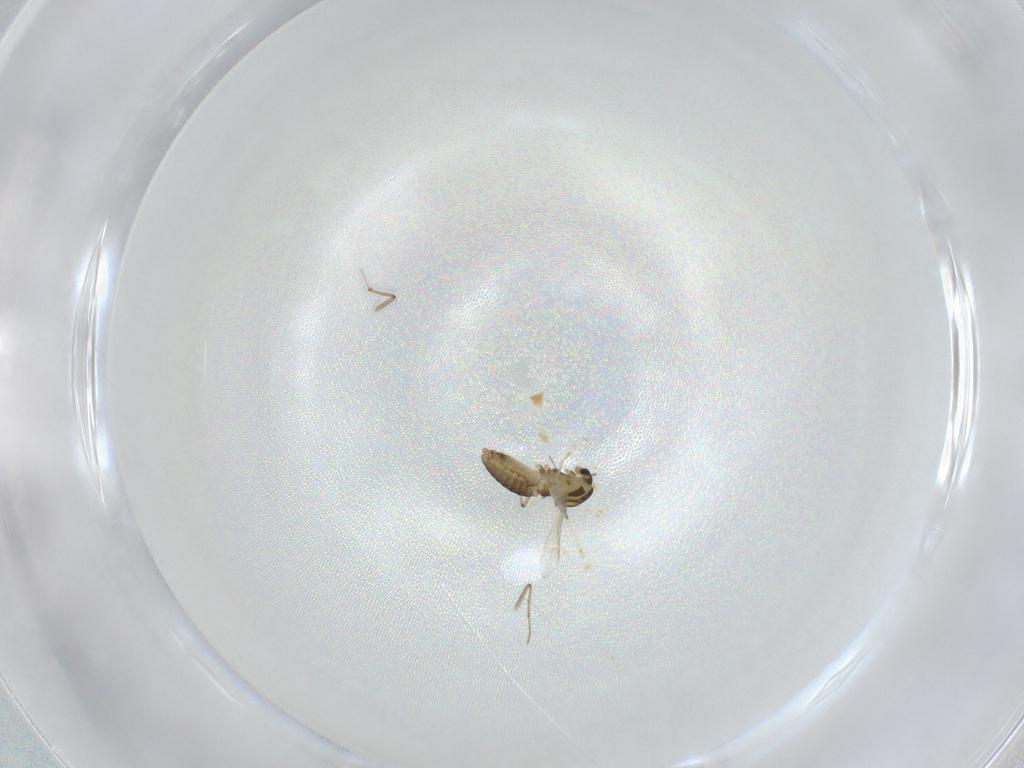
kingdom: Animalia
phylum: Arthropoda
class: Insecta
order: Diptera
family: Chironomidae
